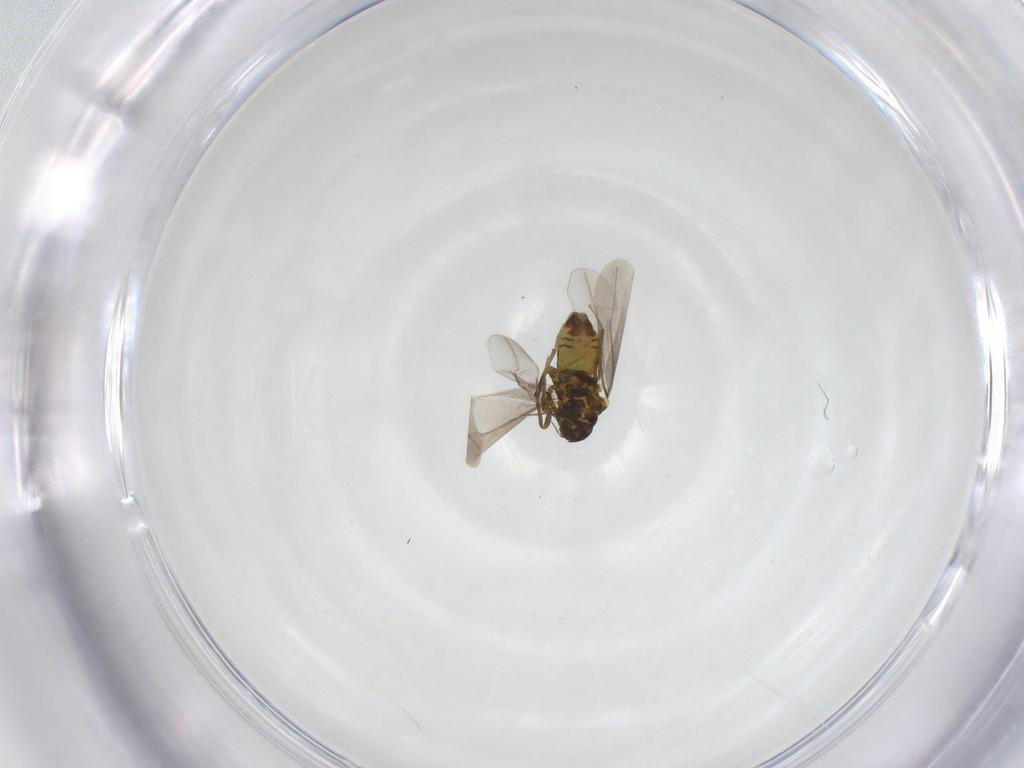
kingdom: Animalia
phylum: Arthropoda
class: Insecta
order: Hemiptera
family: Aleyrodidae
